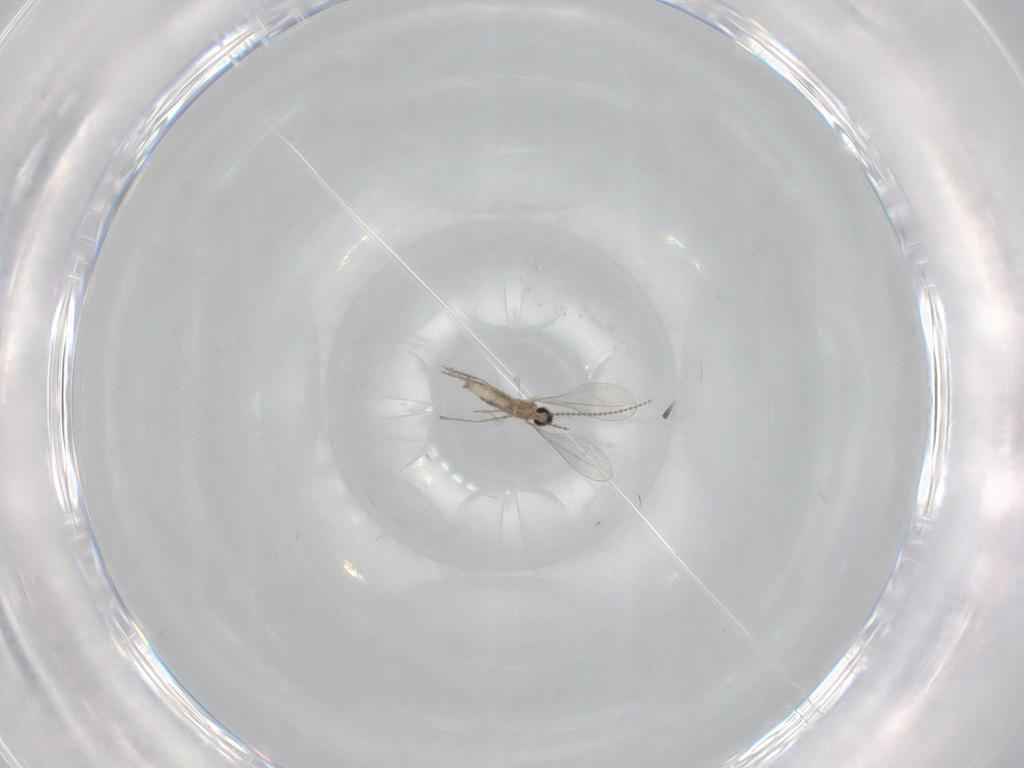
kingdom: Animalia
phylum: Arthropoda
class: Insecta
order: Diptera
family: Cecidomyiidae
